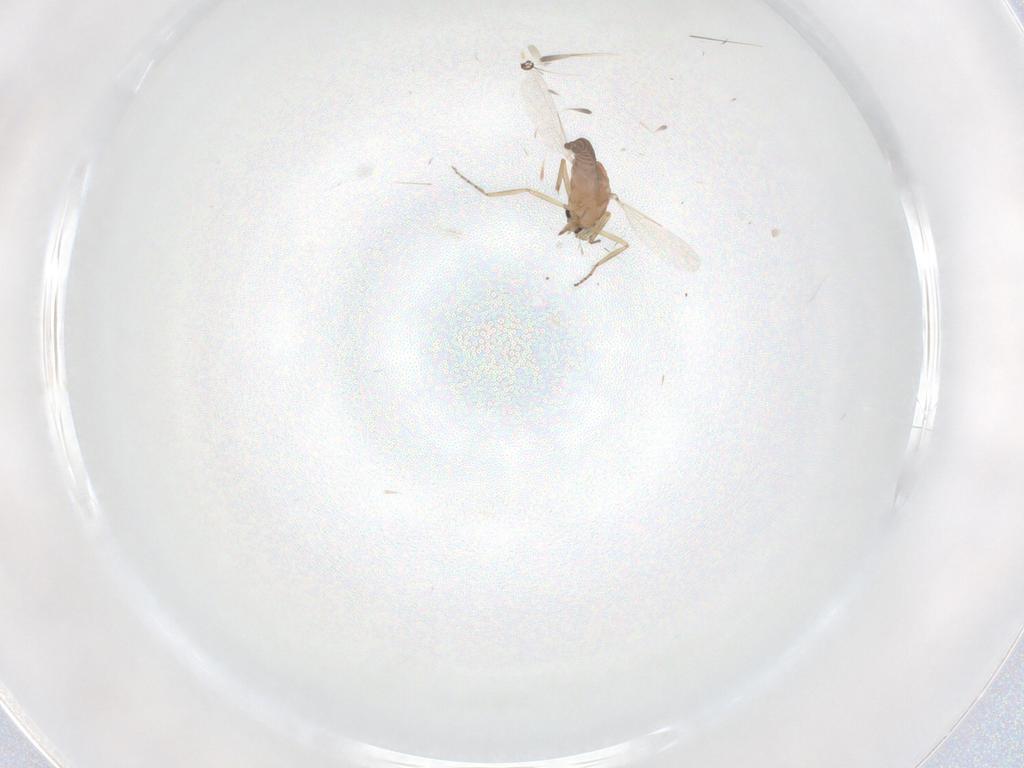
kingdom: Animalia
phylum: Arthropoda
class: Insecta
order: Diptera
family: Ceratopogonidae
